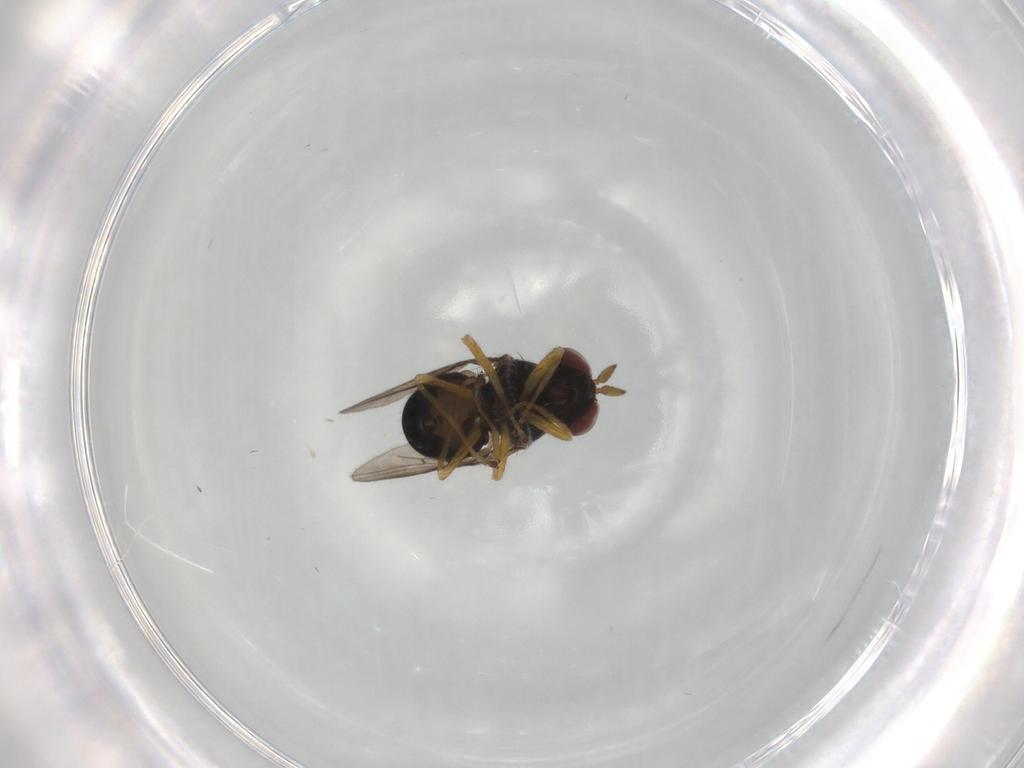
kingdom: Animalia
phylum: Arthropoda
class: Insecta
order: Diptera
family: Ephydridae
